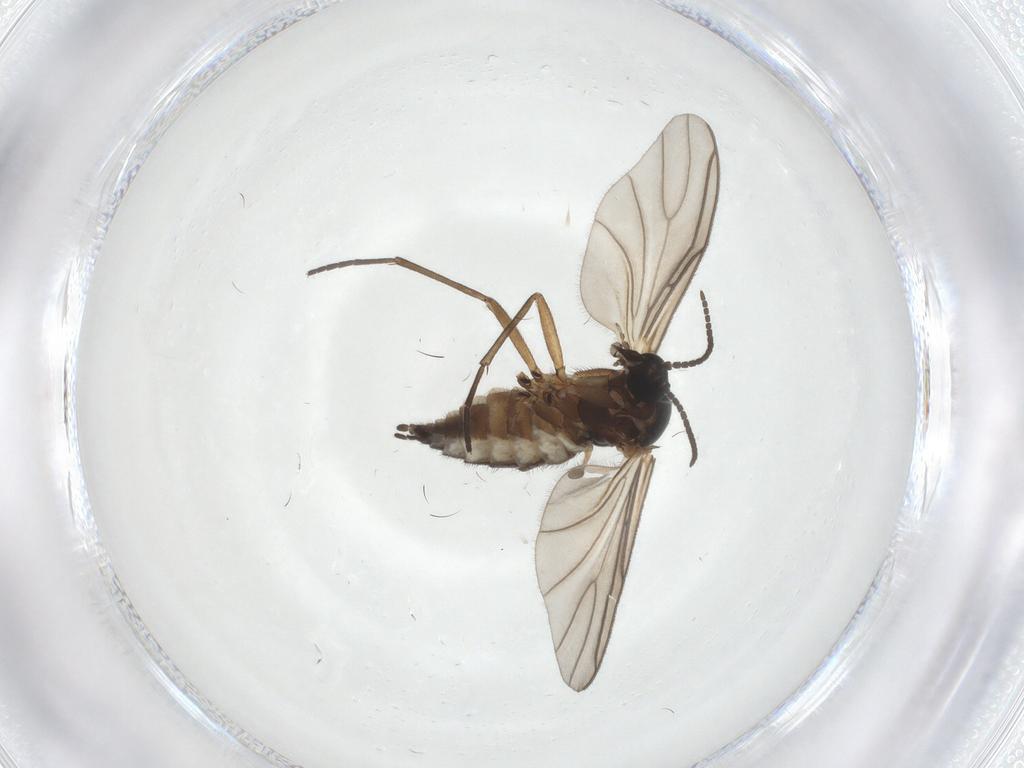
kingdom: Animalia
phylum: Arthropoda
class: Insecta
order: Diptera
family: Sciaridae
